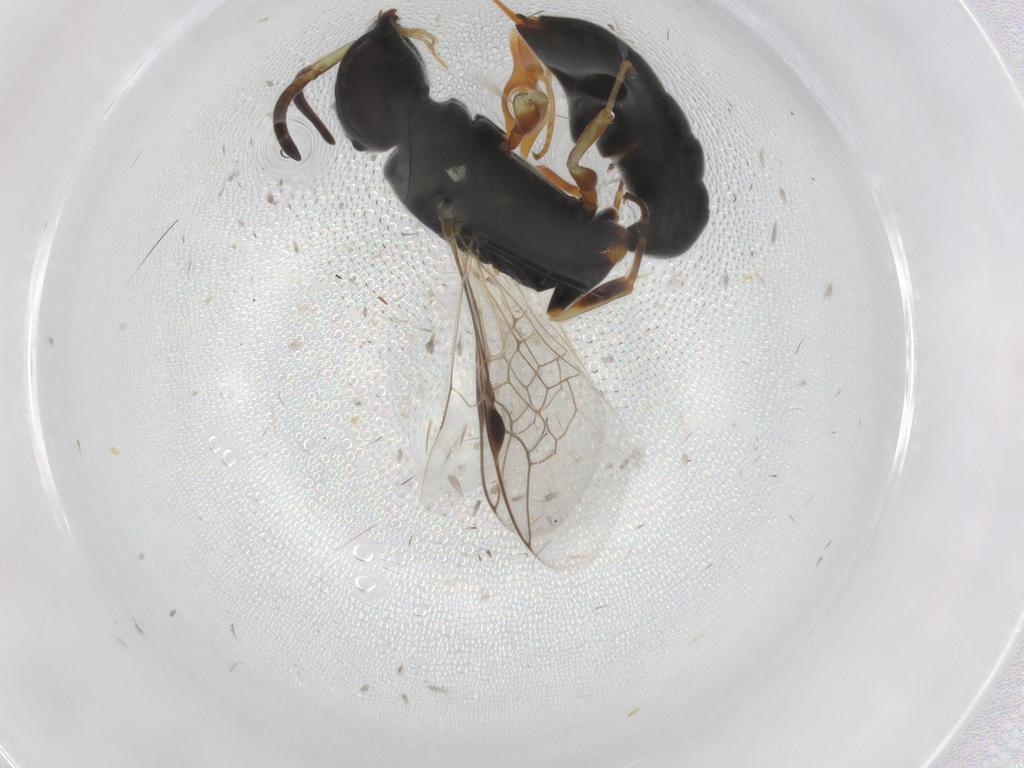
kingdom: Animalia
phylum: Arthropoda
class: Insecta
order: Hymenoptera
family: Pemphredonidae
